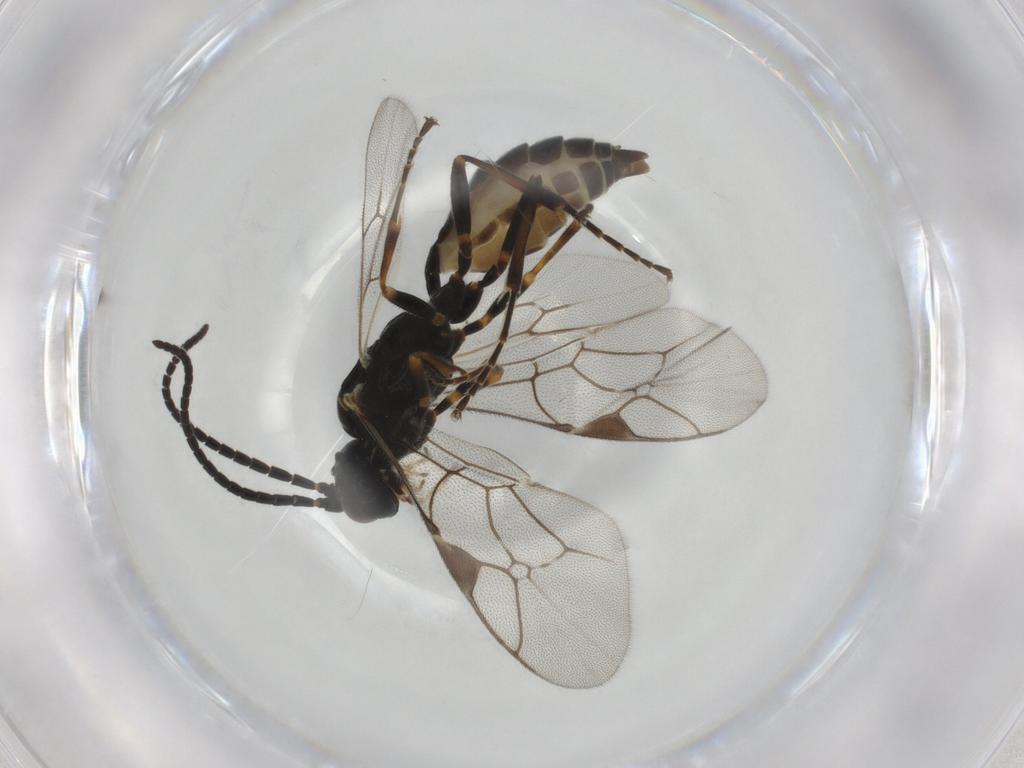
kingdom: Animalia
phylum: Arthropoda
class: Insecta
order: Hymenoptera
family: Ichneumonidae
